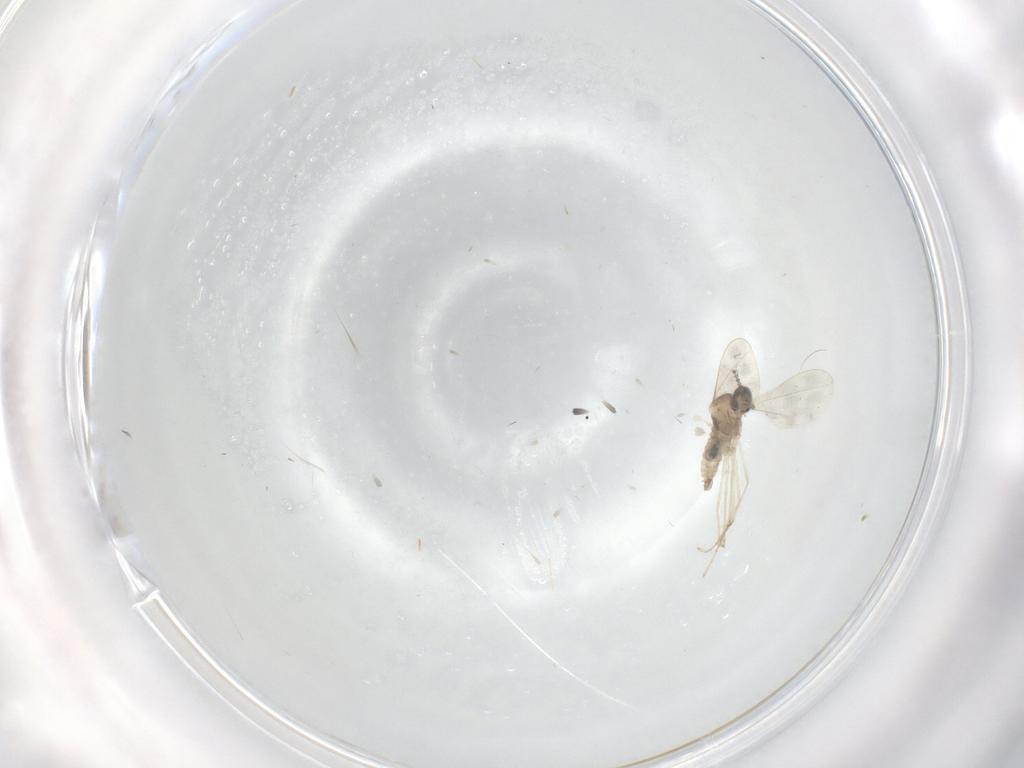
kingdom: Animalia
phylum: Arthropoda
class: Insecta
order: Diptera
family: Cecidomyiidae
